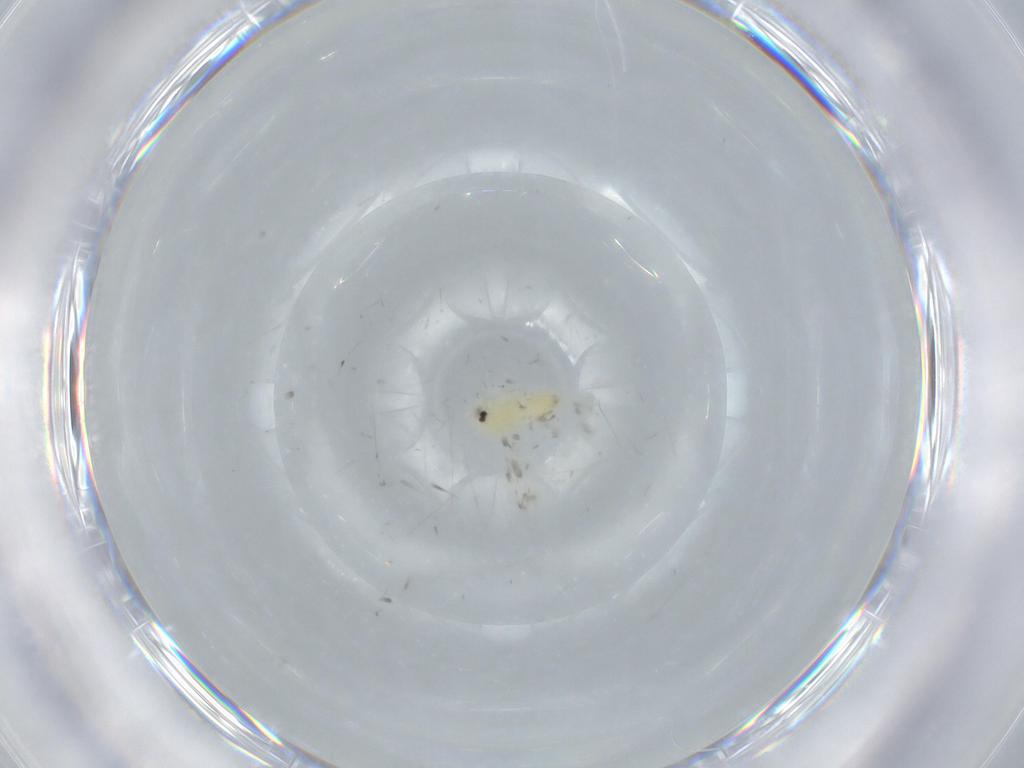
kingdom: Animalia
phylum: Arthropoda
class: Insecta
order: Hemiptera
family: Aleyrodidae
